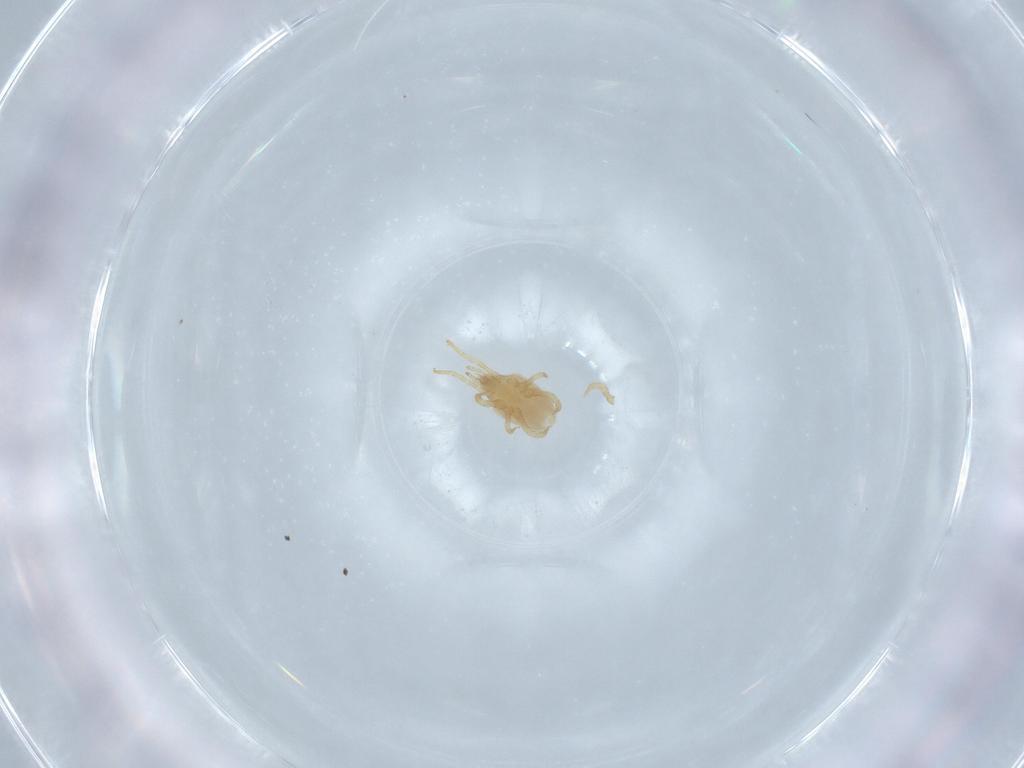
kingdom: Animalia
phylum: Arthropoda
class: Arachnida
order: Mesostigmata
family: Parasitidae
